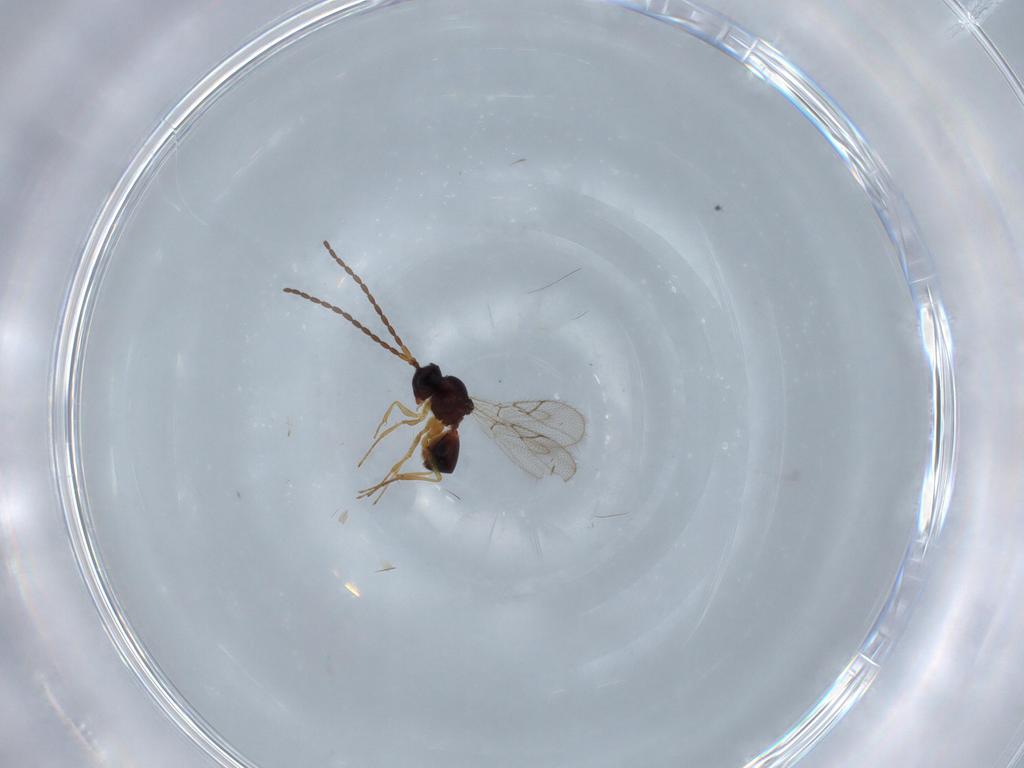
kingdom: Animalia
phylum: Arthropoda
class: Insecta
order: Hymenoptera
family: Figitidae
